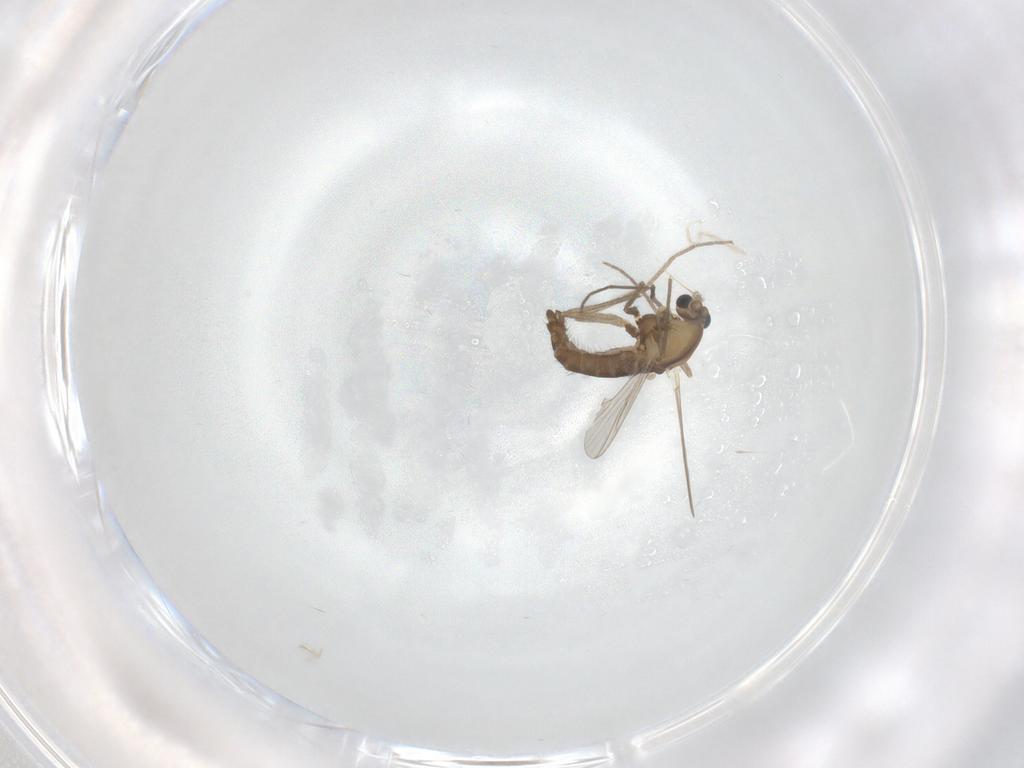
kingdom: Animalia
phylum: Arthropoda
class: Insecta
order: Diptera
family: Chironomidae
